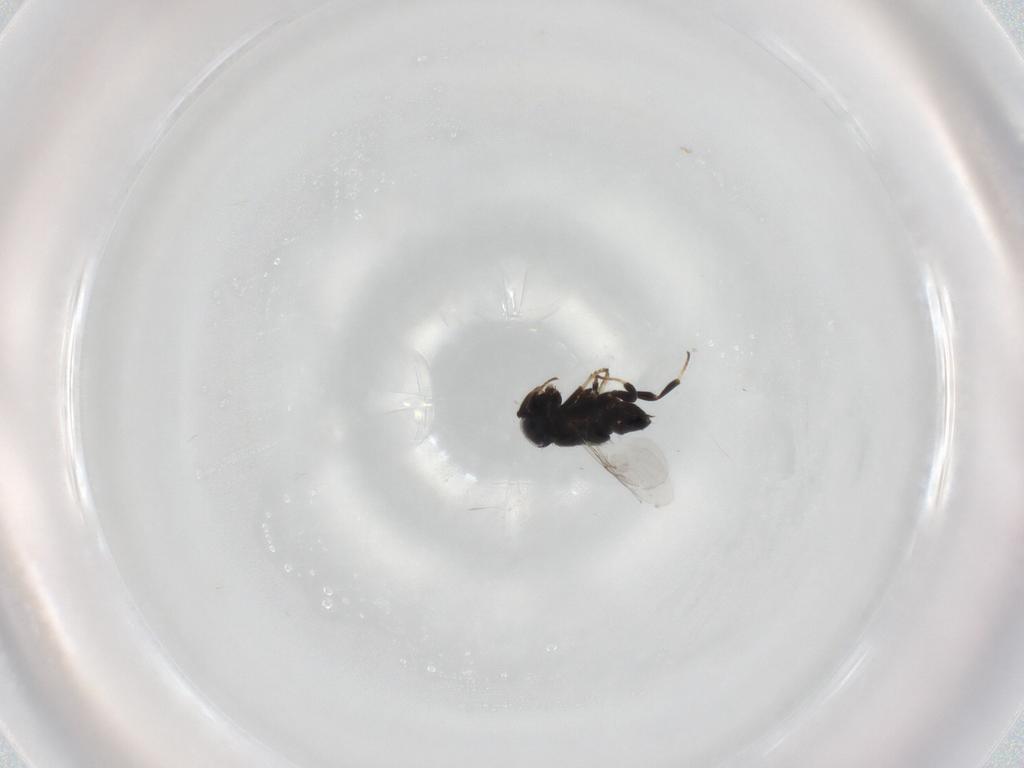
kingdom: Animalia
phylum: Arthropoda
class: Insecta
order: Hymenoptera
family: Encyrtidae
